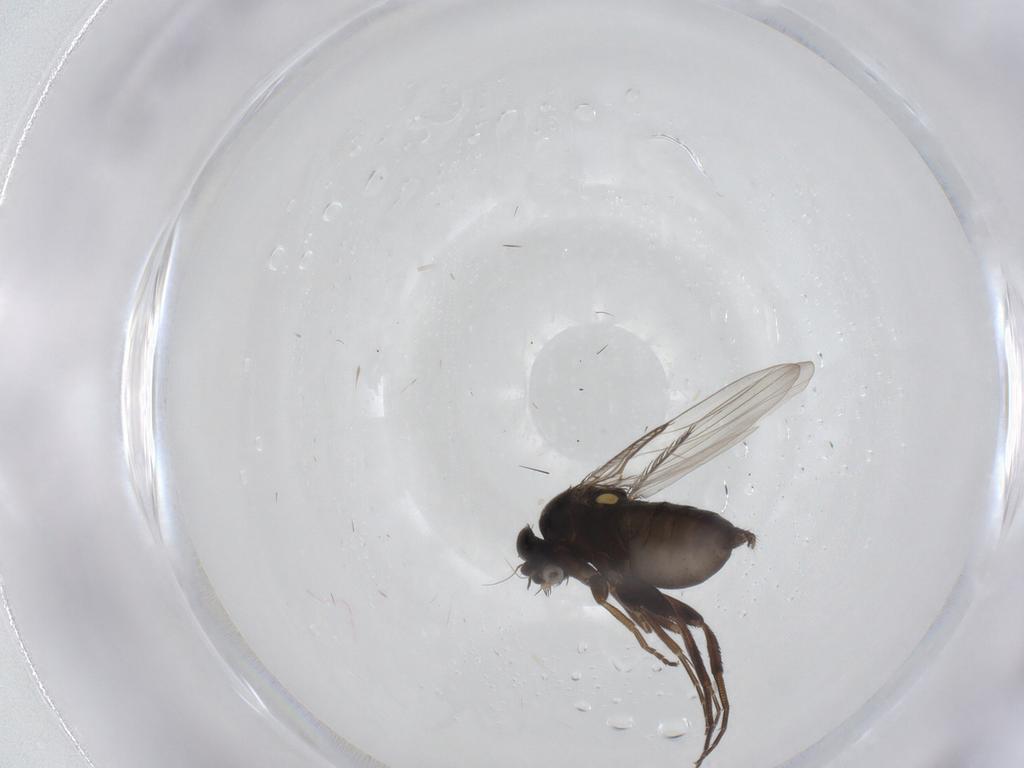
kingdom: Animalia
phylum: Arthropoda
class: Insecta
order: Diptera
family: Phoridae
